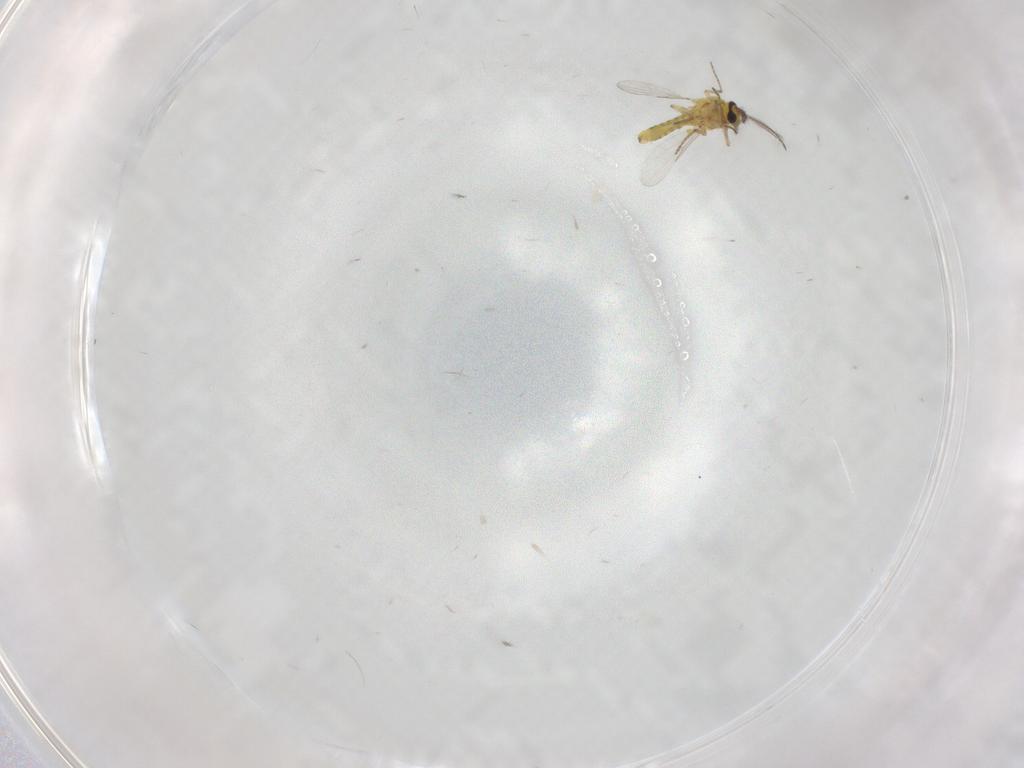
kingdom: Animalia
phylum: Arthropoda
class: Insecta
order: Diptera
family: Ceratopogonidae
